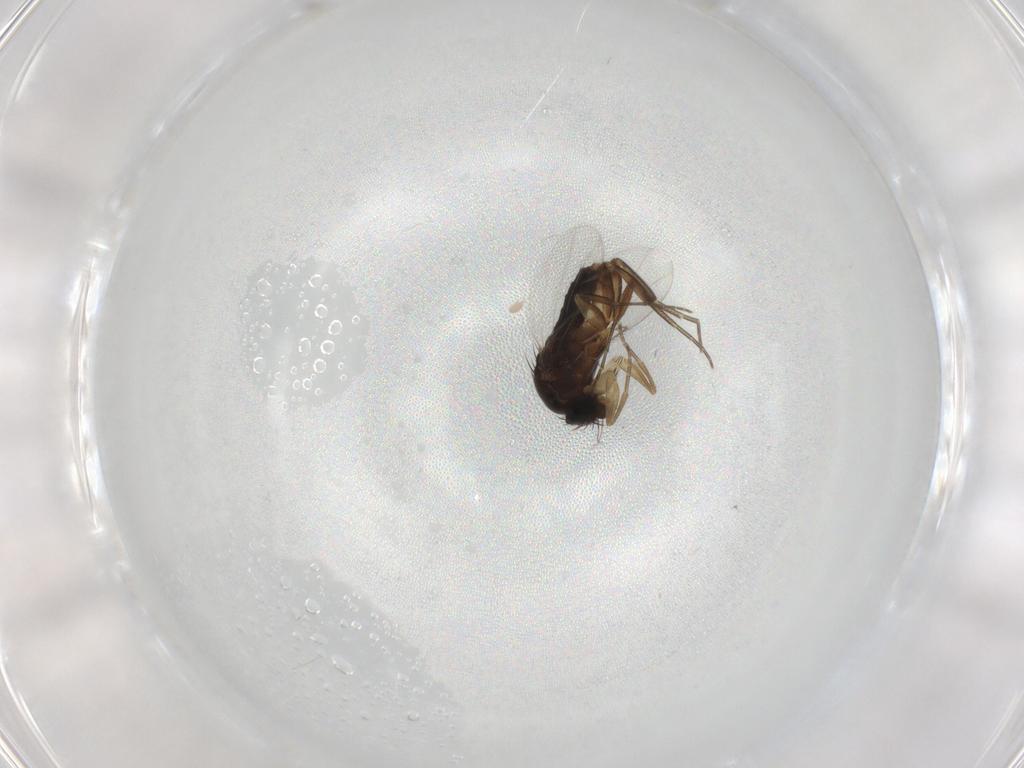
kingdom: Animalia
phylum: Arthropoda
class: Insecta
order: Diptera
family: Phoridae
